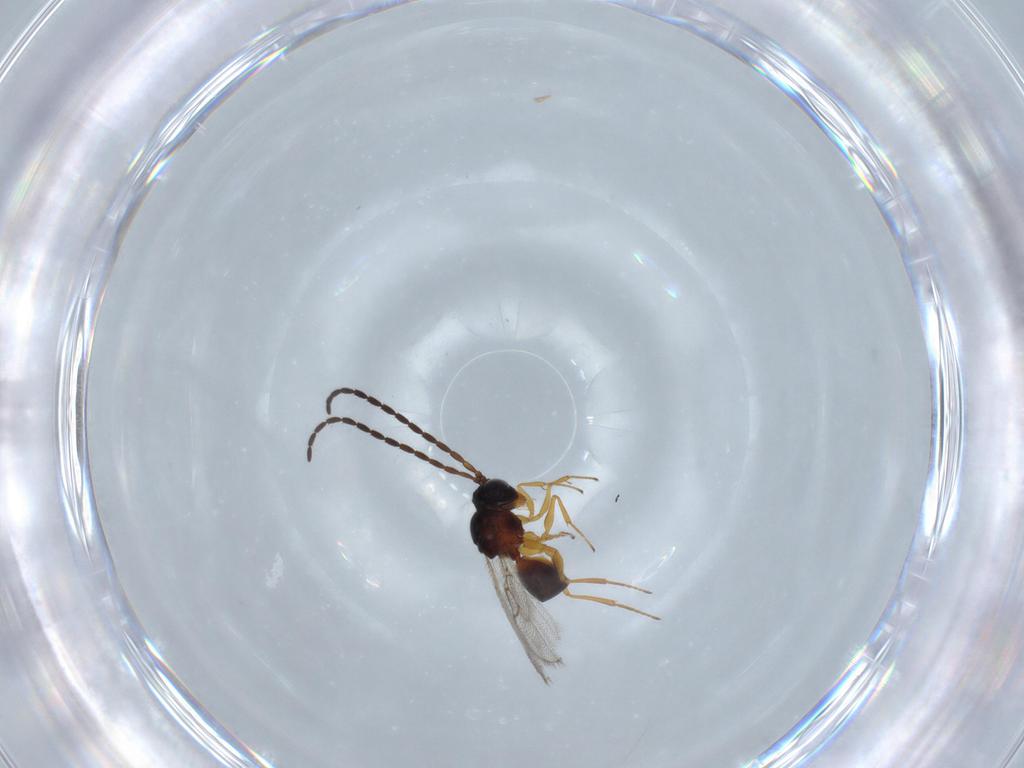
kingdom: Animalia
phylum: Arthropoda
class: Insecta
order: Hymenoptera
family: Figitidae
